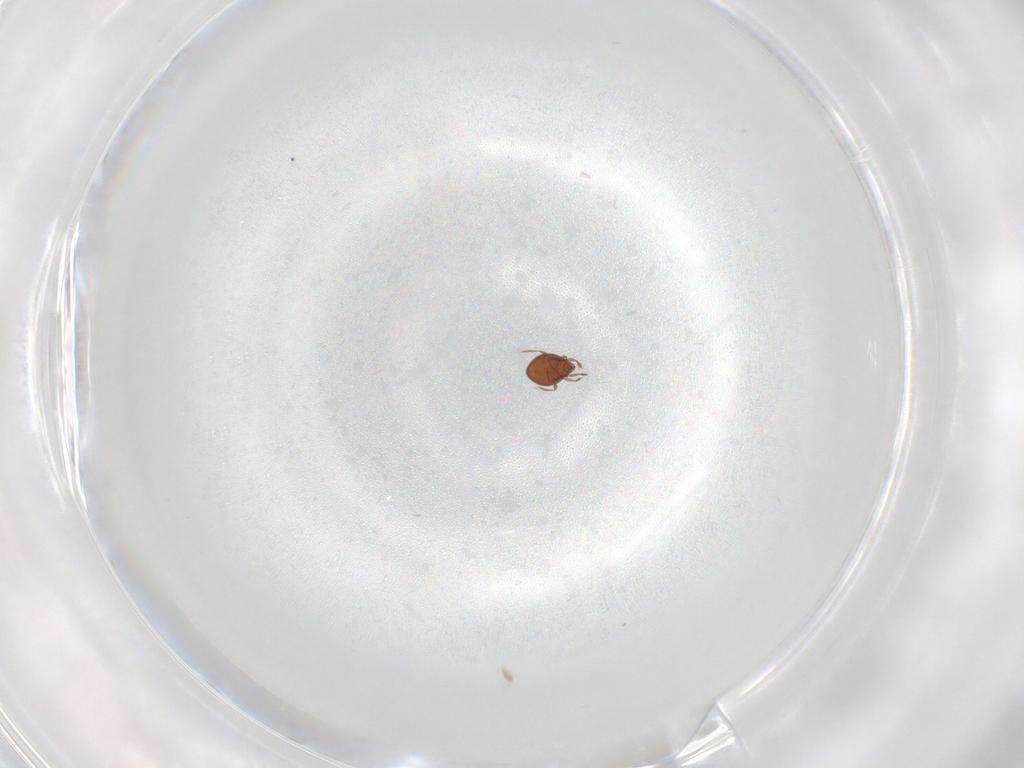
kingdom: Animalia
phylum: Arthropoda
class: Arachnida
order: Sarcoptiformes
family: Oribatulidae
